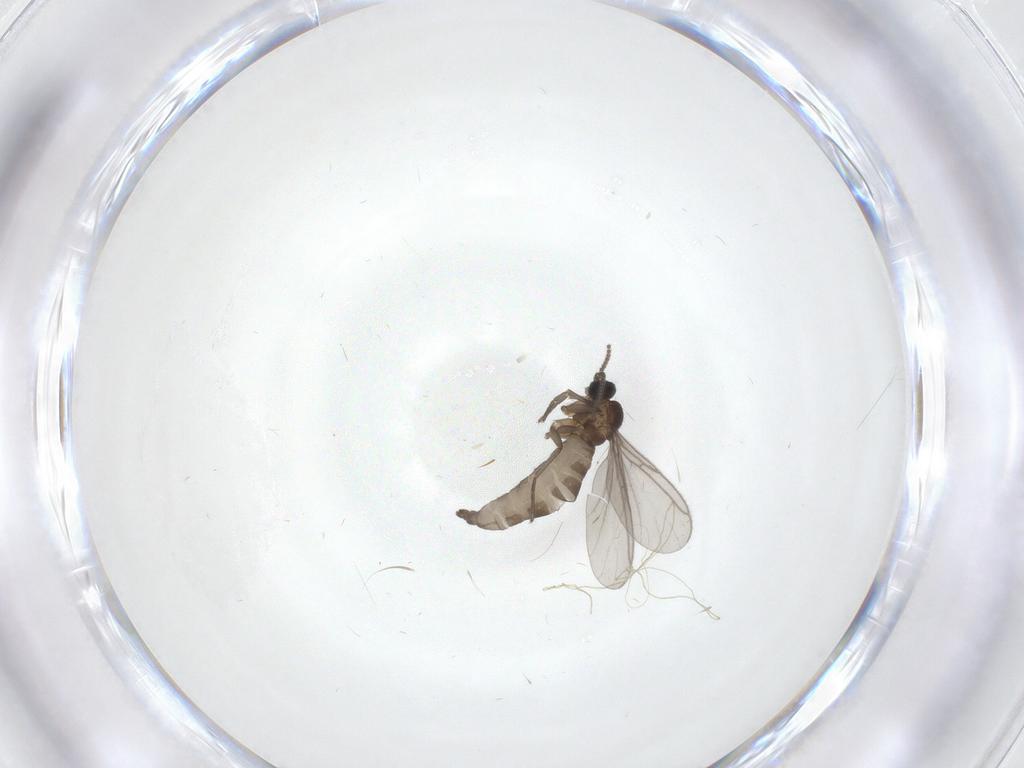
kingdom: Animalia
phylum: Arthropoda
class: Insecta
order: Diptera
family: Sciaridae
